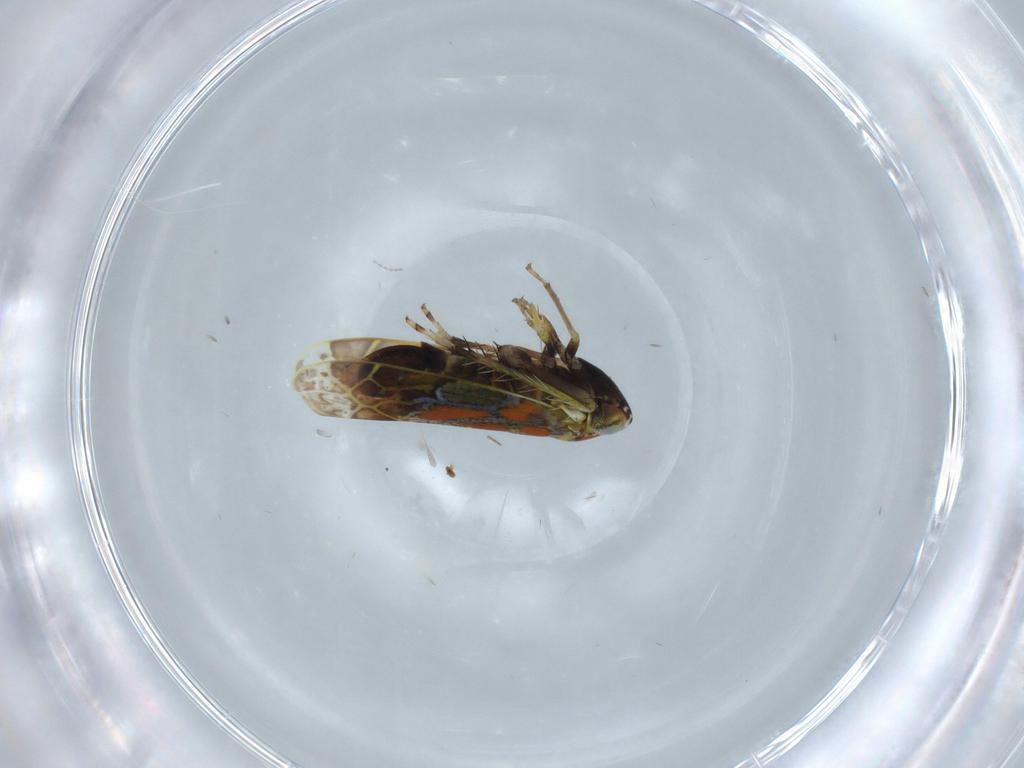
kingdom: Animalia
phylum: Arthropoda
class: Insecta
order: Hemiptera
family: Cicadellidae
